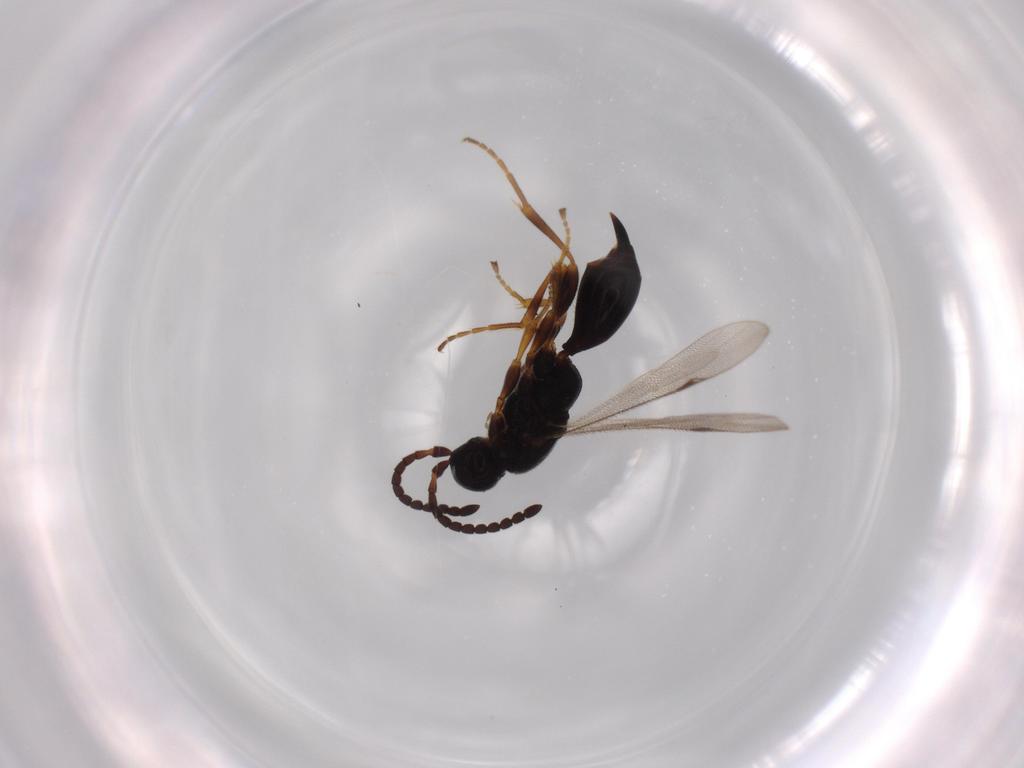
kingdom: Animalia
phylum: Arthropoda
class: Insecta
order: Hymenoptera
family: Proctotrupidae
